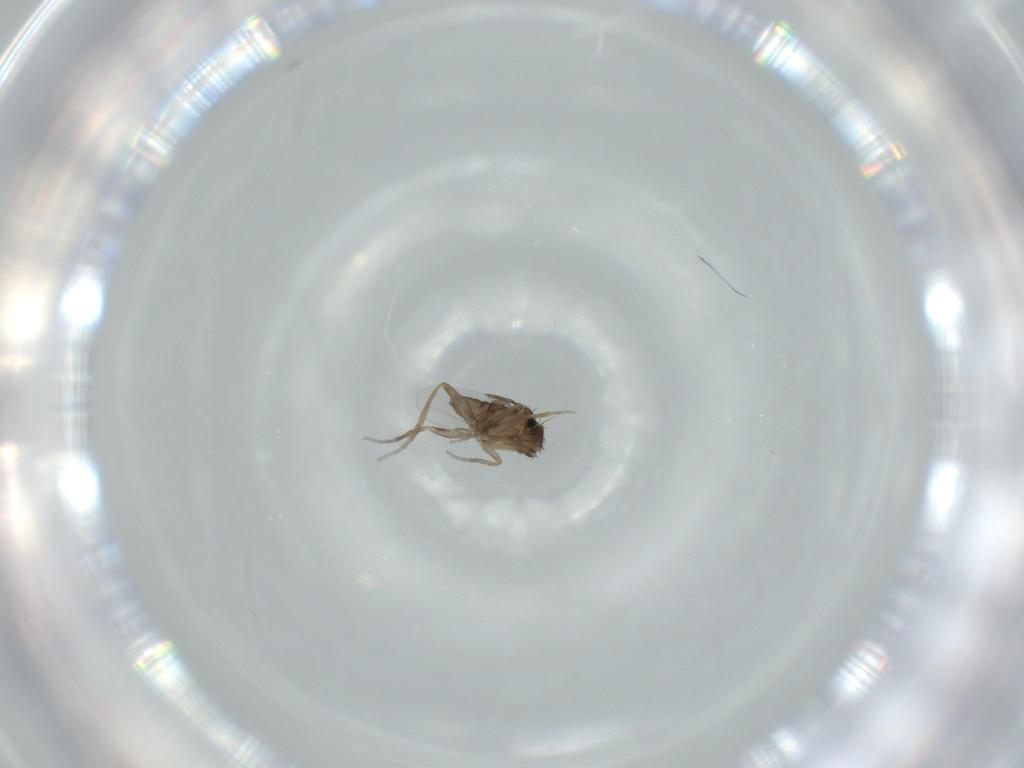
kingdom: Animalia
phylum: Arthropoda
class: Insecta
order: Diptera
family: Phoridae
